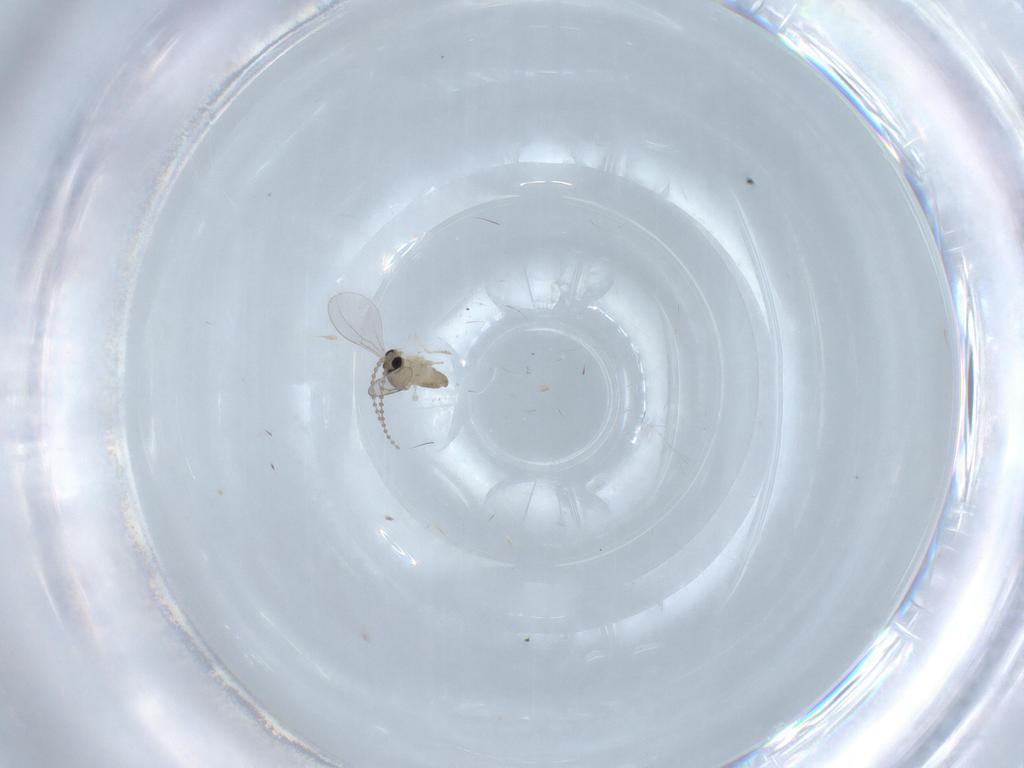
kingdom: Animalia
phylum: Arthropoda
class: Insecta
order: Diptera
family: Cecidomyiidae
